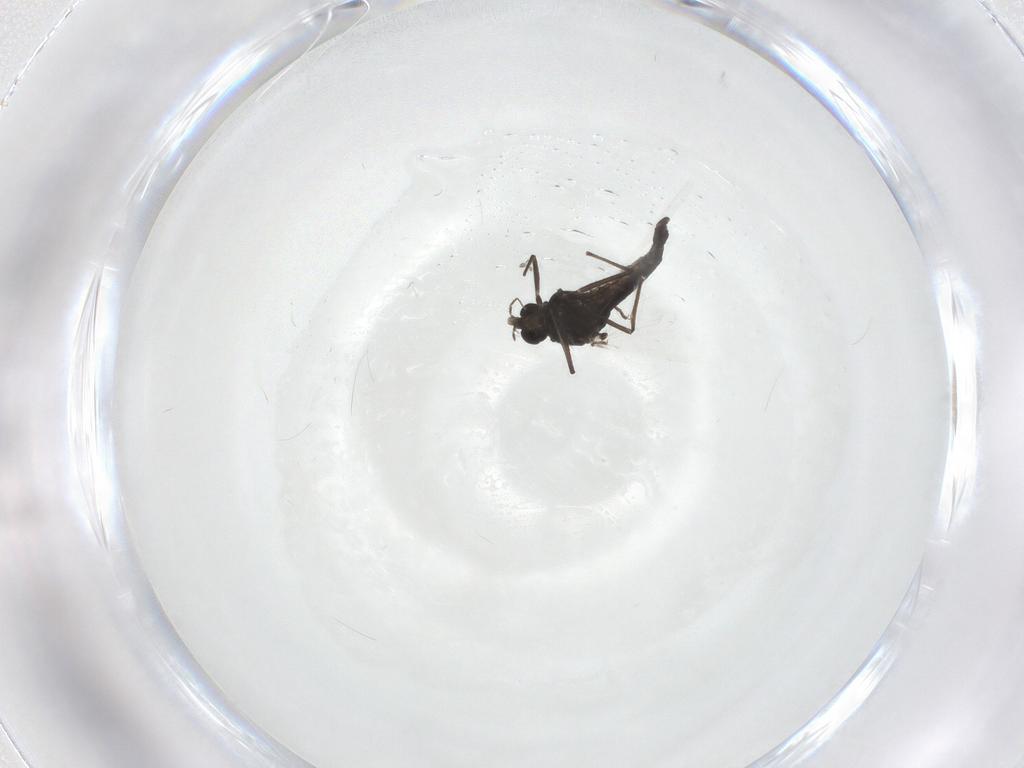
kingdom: Animalia
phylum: Arthropoda
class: Insecta
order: Diptera
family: Chironomidae
